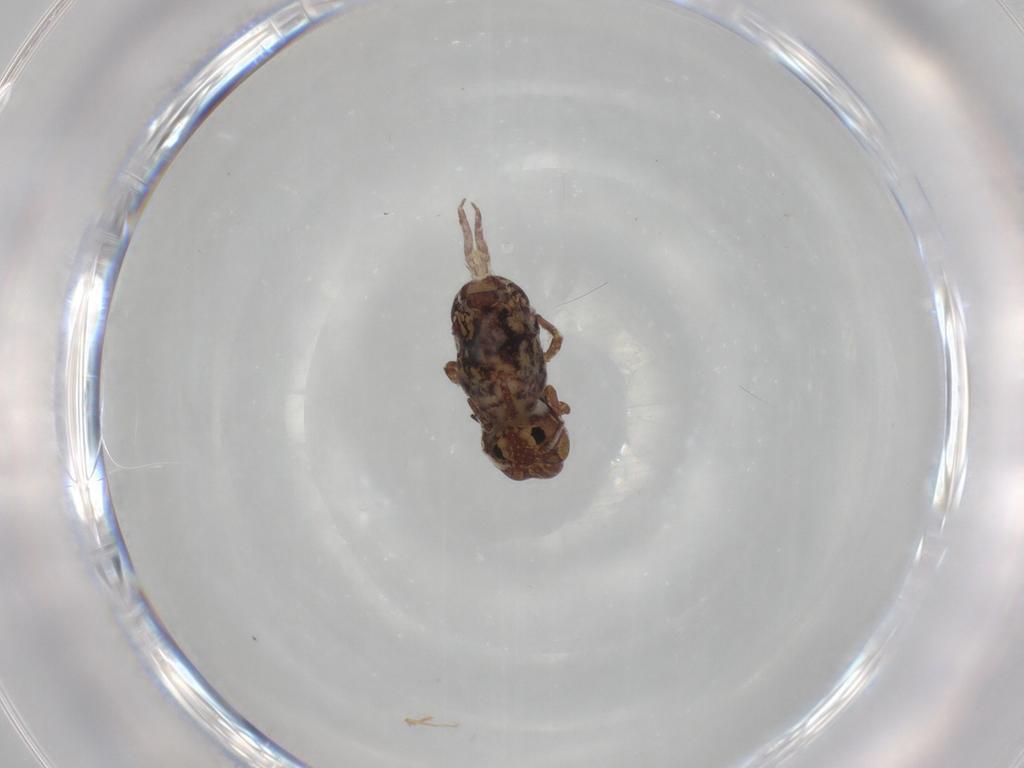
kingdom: Animalia
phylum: Arthropoda
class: Collembola
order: Symphypleona
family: Sminthuridae
